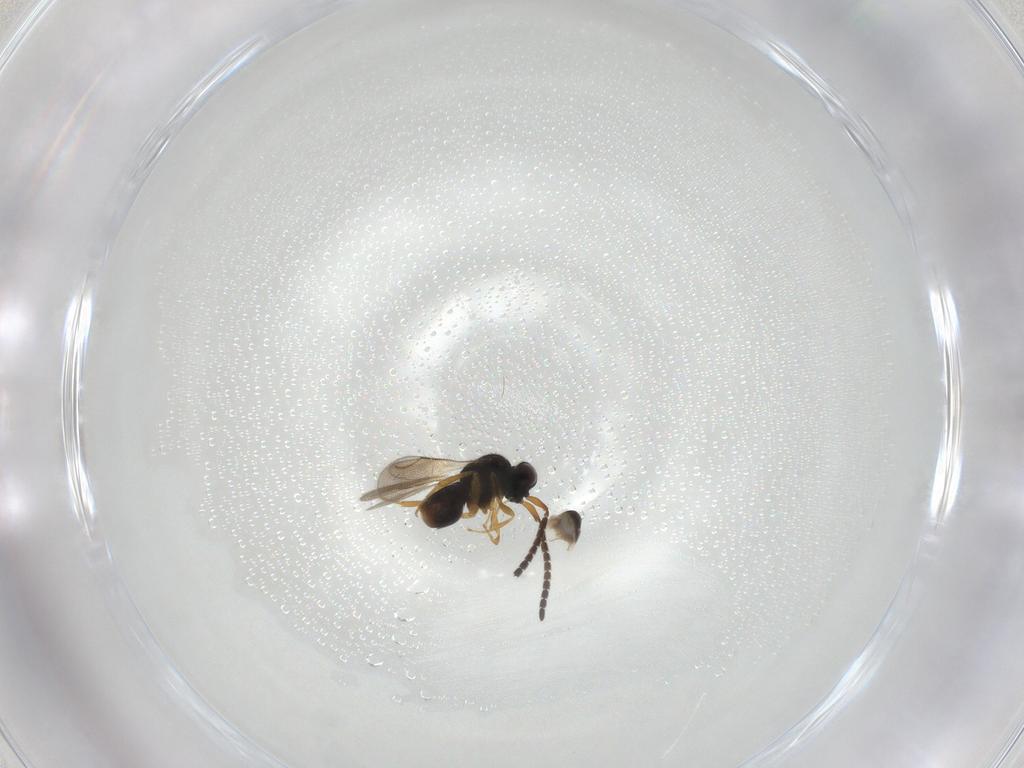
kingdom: Animalia
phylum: Arthropoda
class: Insecta
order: Hymenoptera
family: Ceraphronidae
